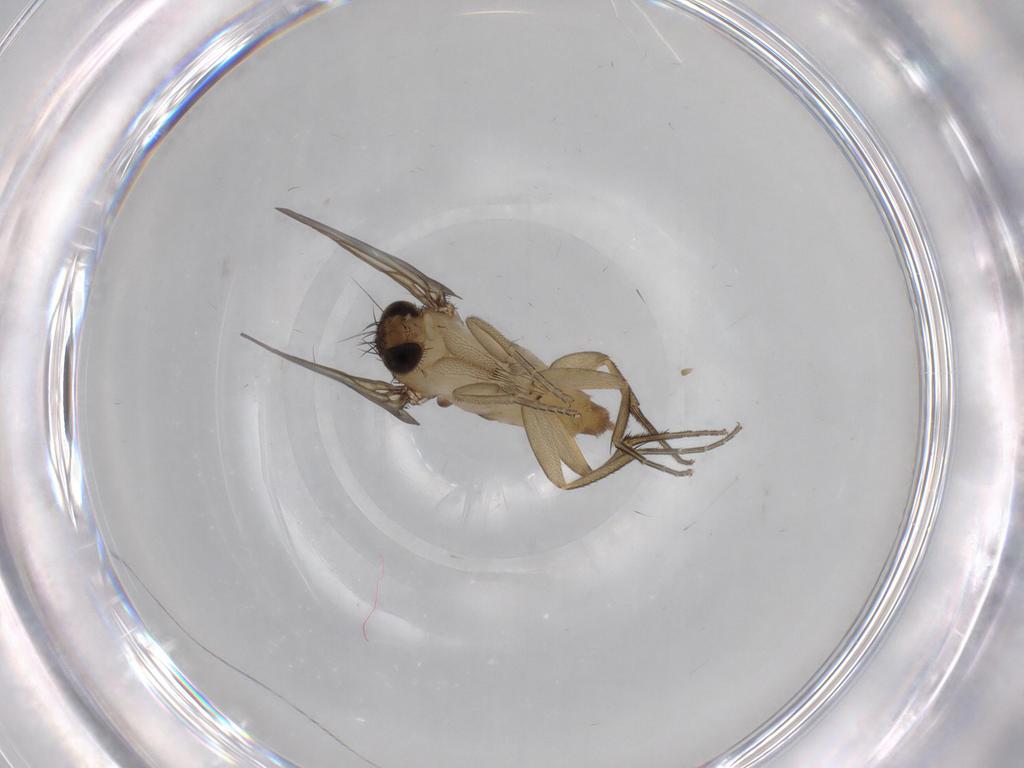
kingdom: Animalia
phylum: Arthropoda
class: Insecta
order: Diptera
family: Phoridae
